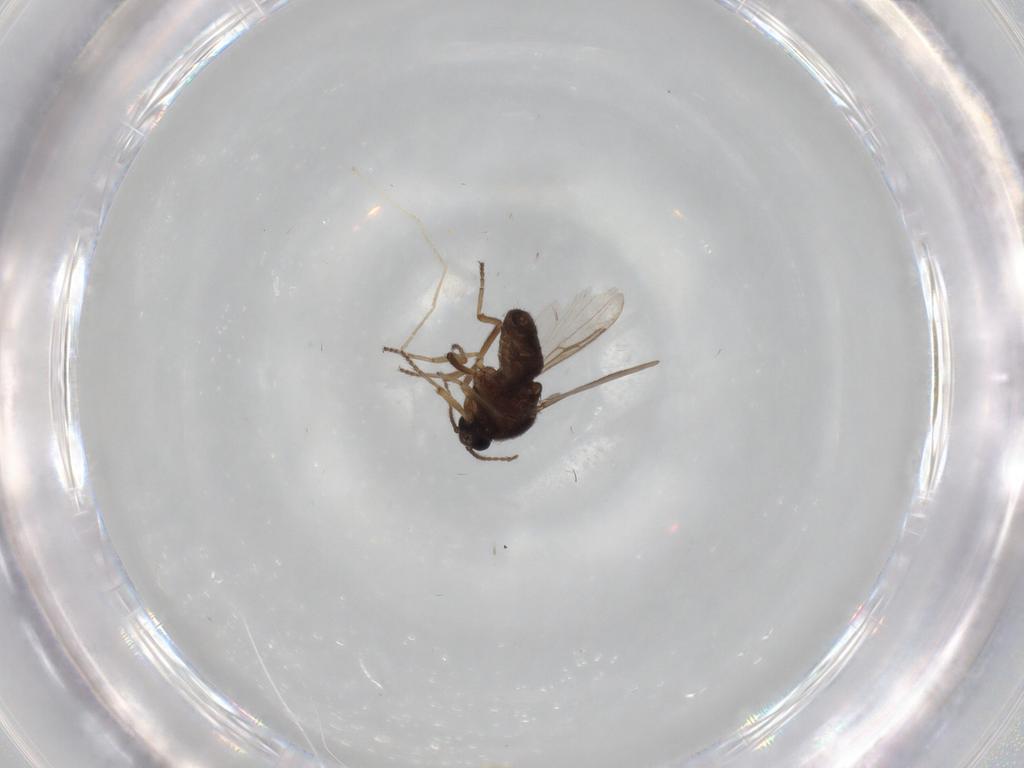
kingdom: Animalia
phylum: Arthropoda
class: Insecta
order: Diptera
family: Ceratopogonidae
